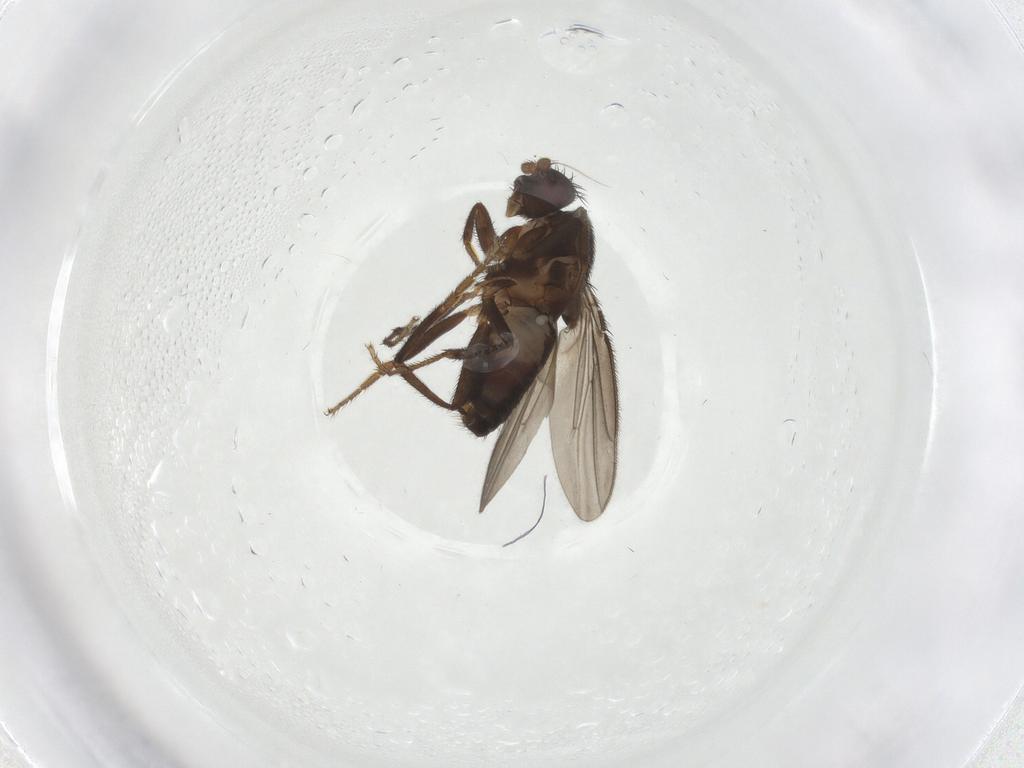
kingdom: Animalia
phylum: Arthropoda
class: Insecta
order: Diptera
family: Sphaeroceridae
